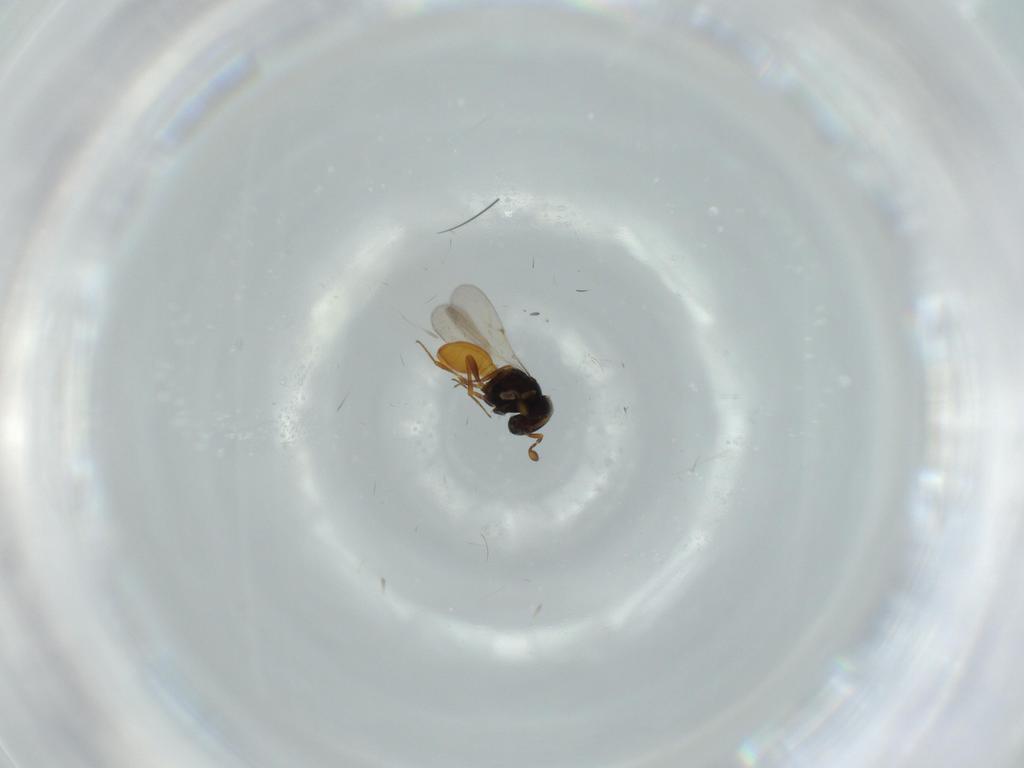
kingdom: Animalia
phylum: Arthropoda
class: Insecta
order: Hymenoptera
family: Scelionidae
